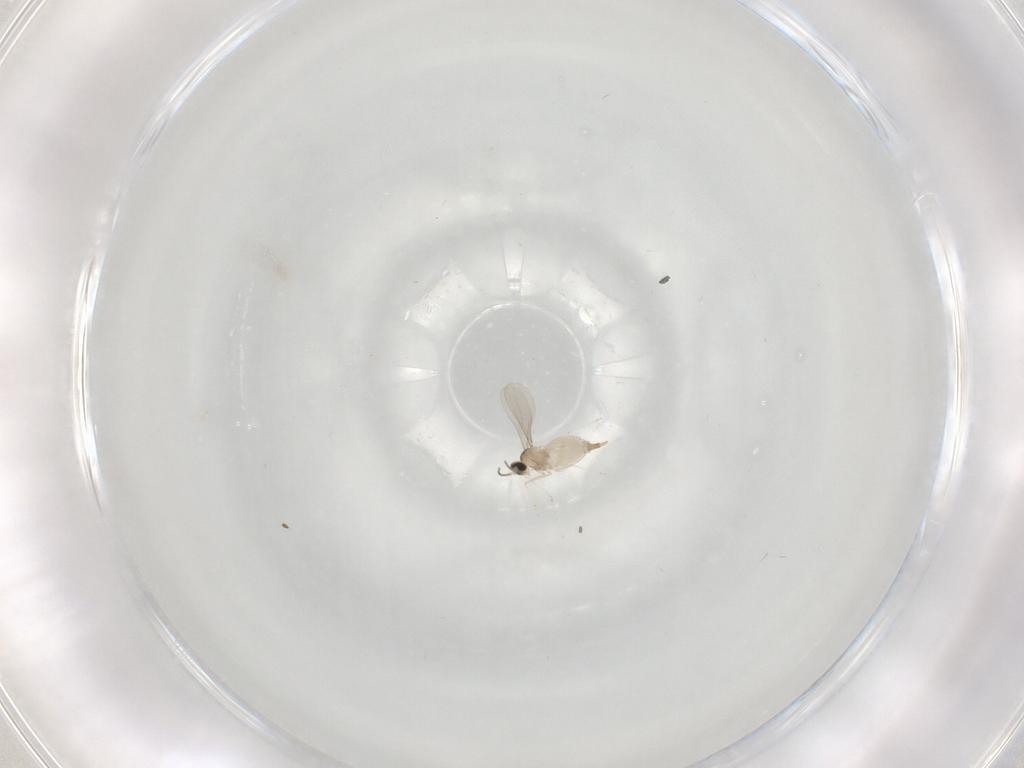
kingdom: Animalia
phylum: Arthropoda
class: Insecta
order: Diptera
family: Cecidomyiidae
